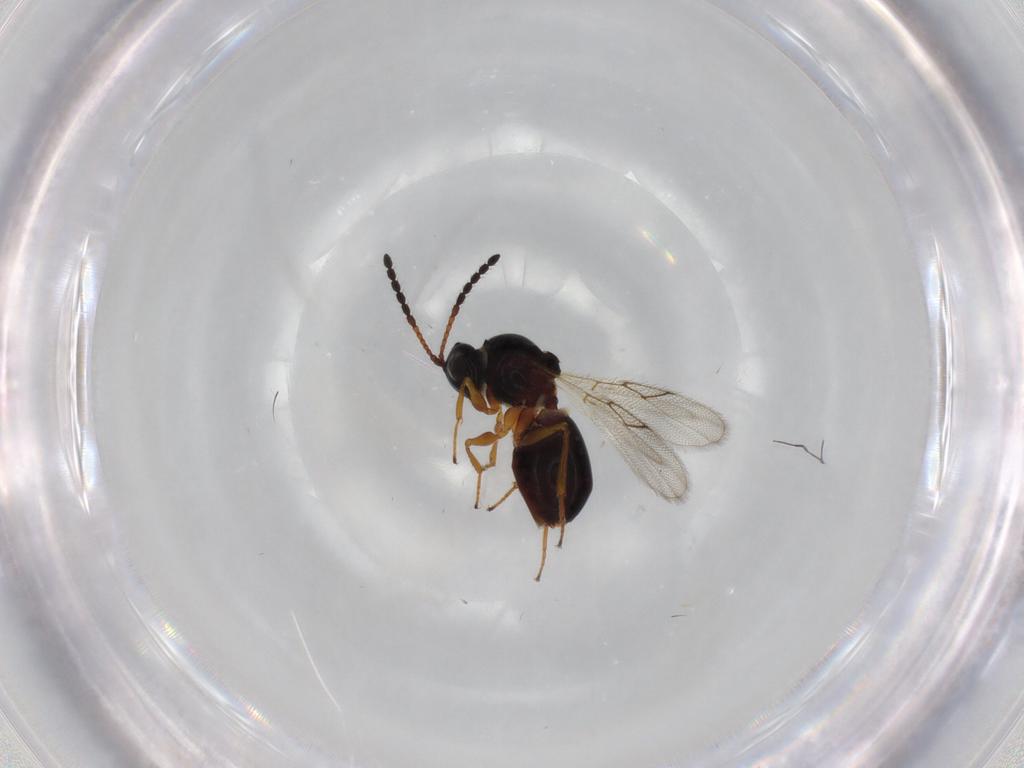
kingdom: Animalia
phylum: Arthropoda
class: Insecta
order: Hymenoptera
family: Figitidae
